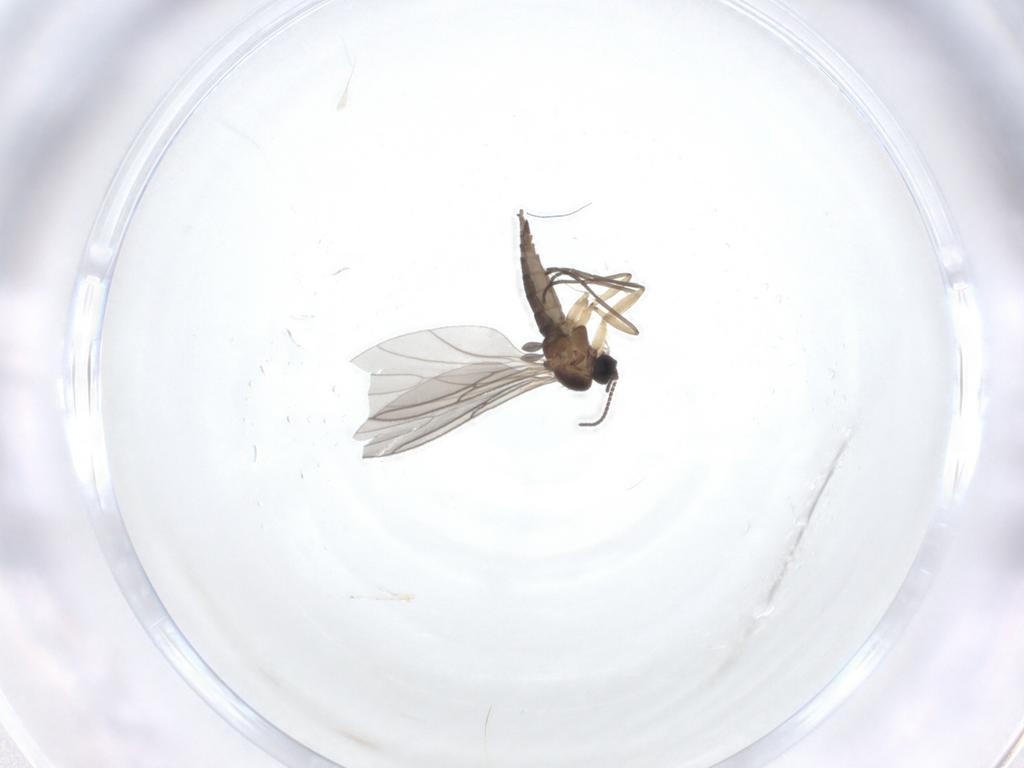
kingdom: Animalia
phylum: Arthropoda
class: Insecta
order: Diptera
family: Sciaridae
